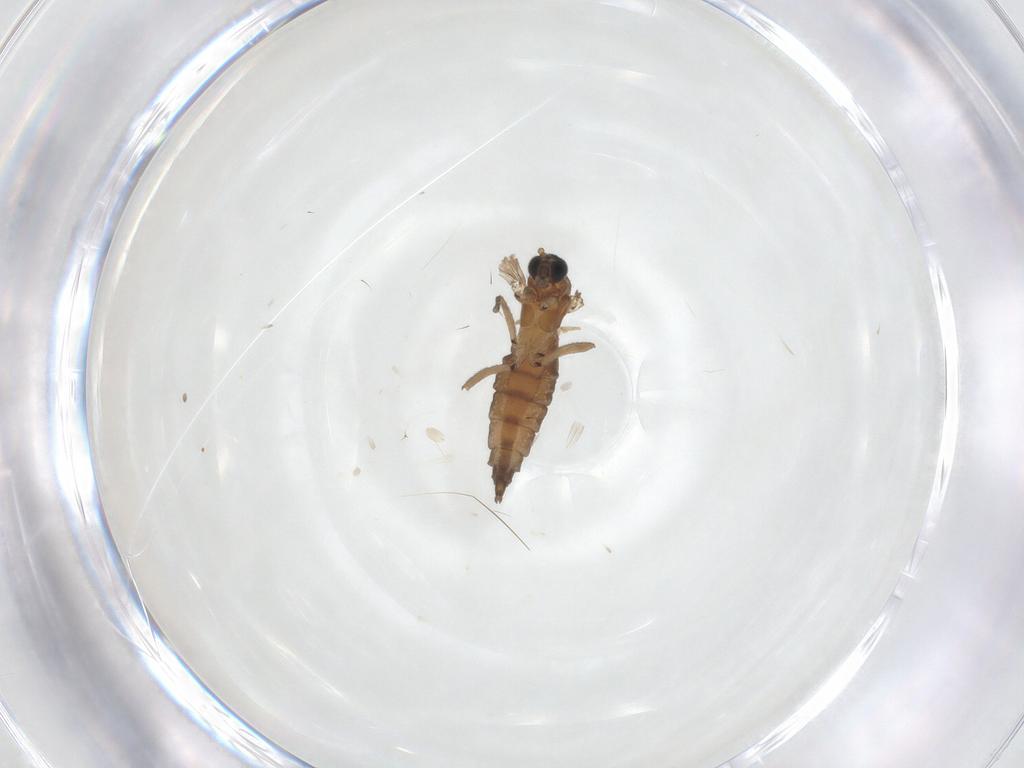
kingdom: Animalia
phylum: Arthropoda
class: Insecta
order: Diptera
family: Sciaridae
